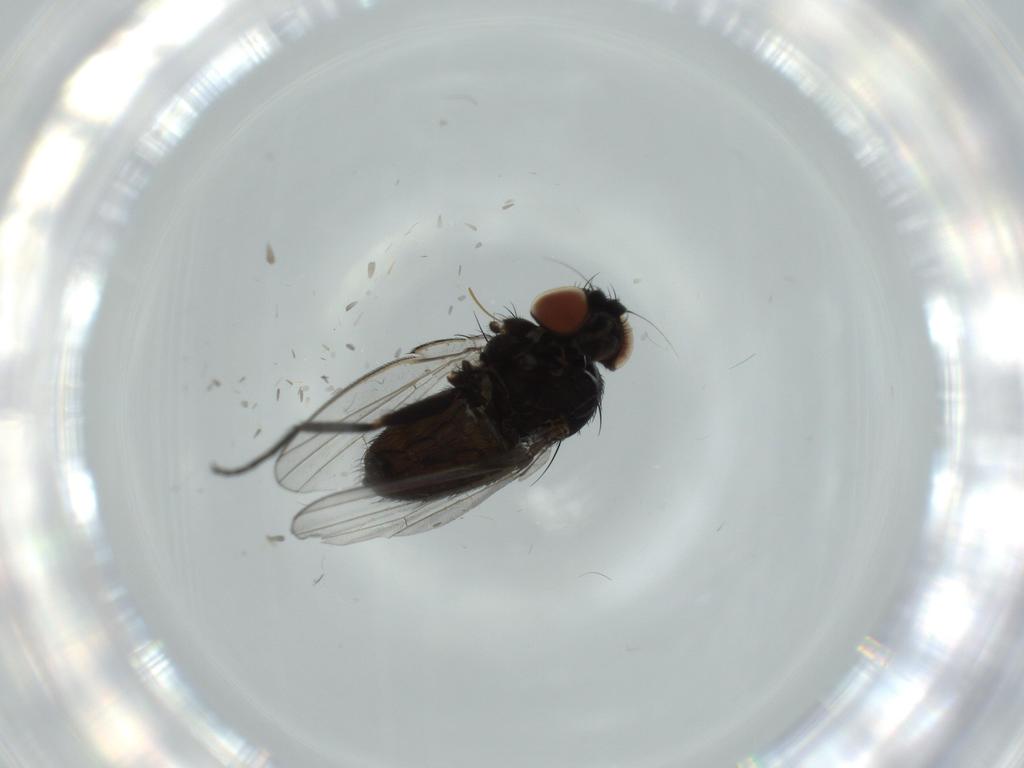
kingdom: Animalia
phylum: Arthropoda
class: Insecta
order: Diptera
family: Milichiidae
